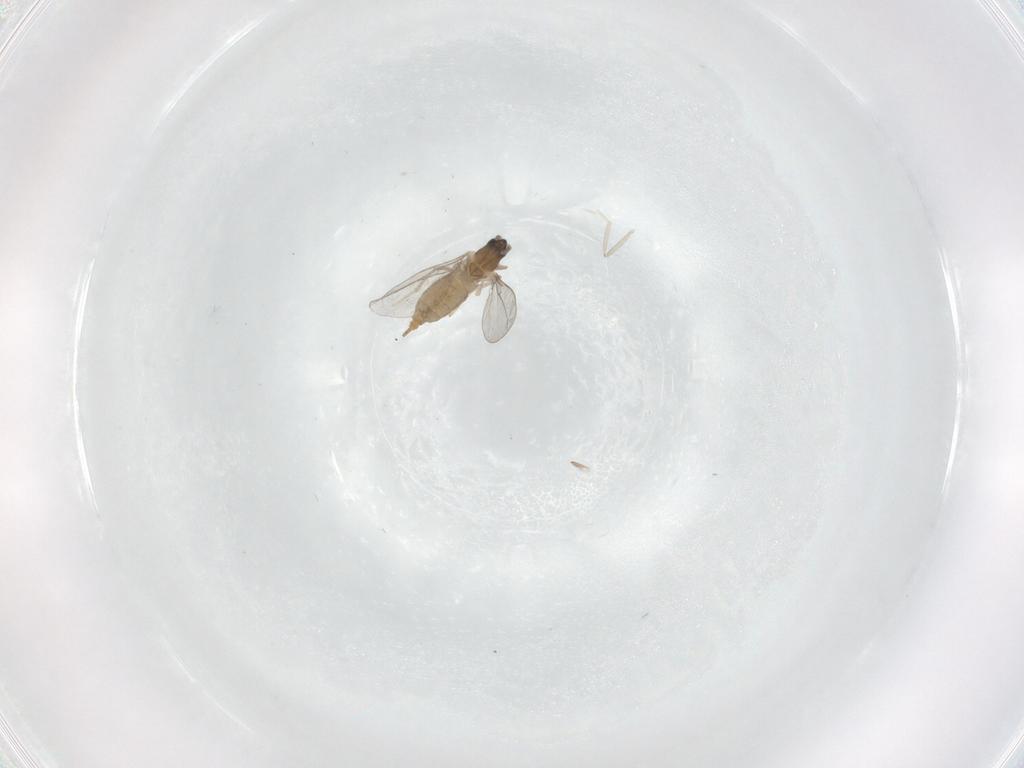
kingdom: Animalia
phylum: Arthropoda
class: Insecta
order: Diptera
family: Cecidomyiidae
